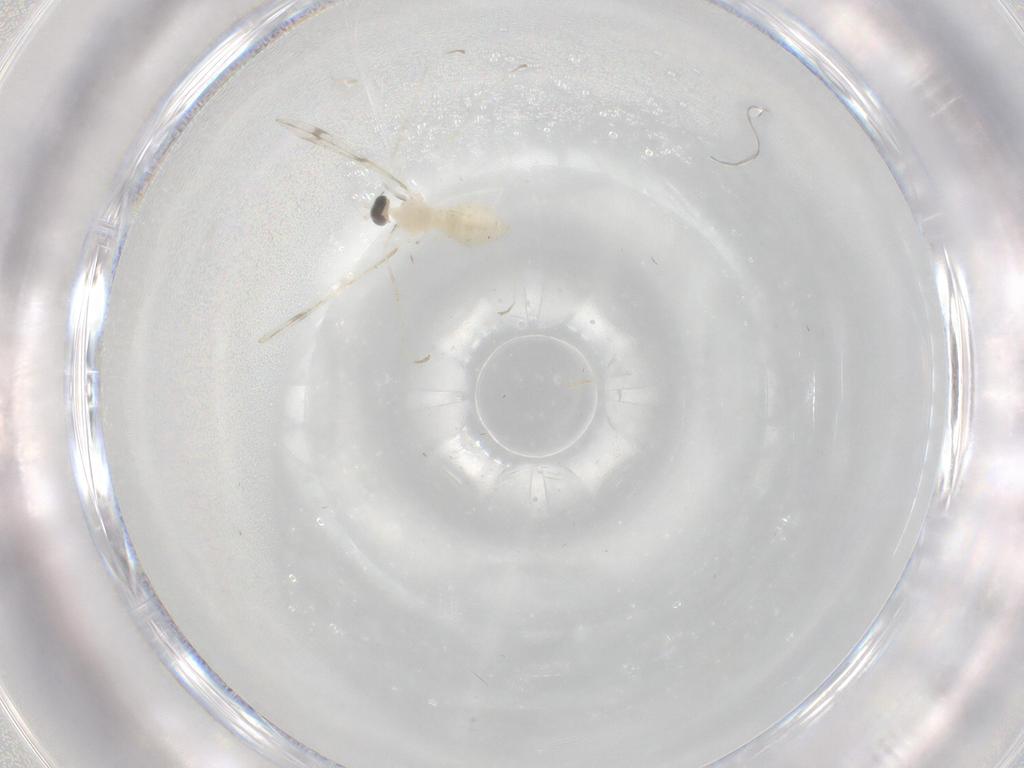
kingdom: Animalia
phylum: Arthropoda
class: Insecta
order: Diptera
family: Cecidomyiidae
